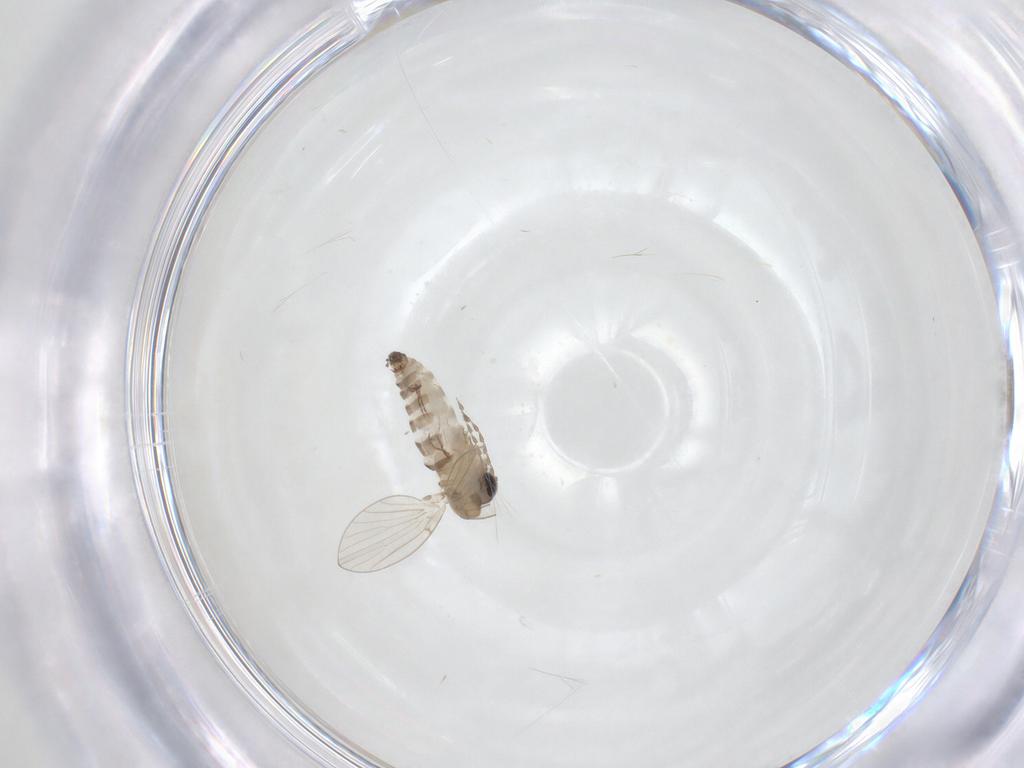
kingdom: Animalia
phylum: Arthropoda
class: Insecta
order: Diptera
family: Psychodidae
